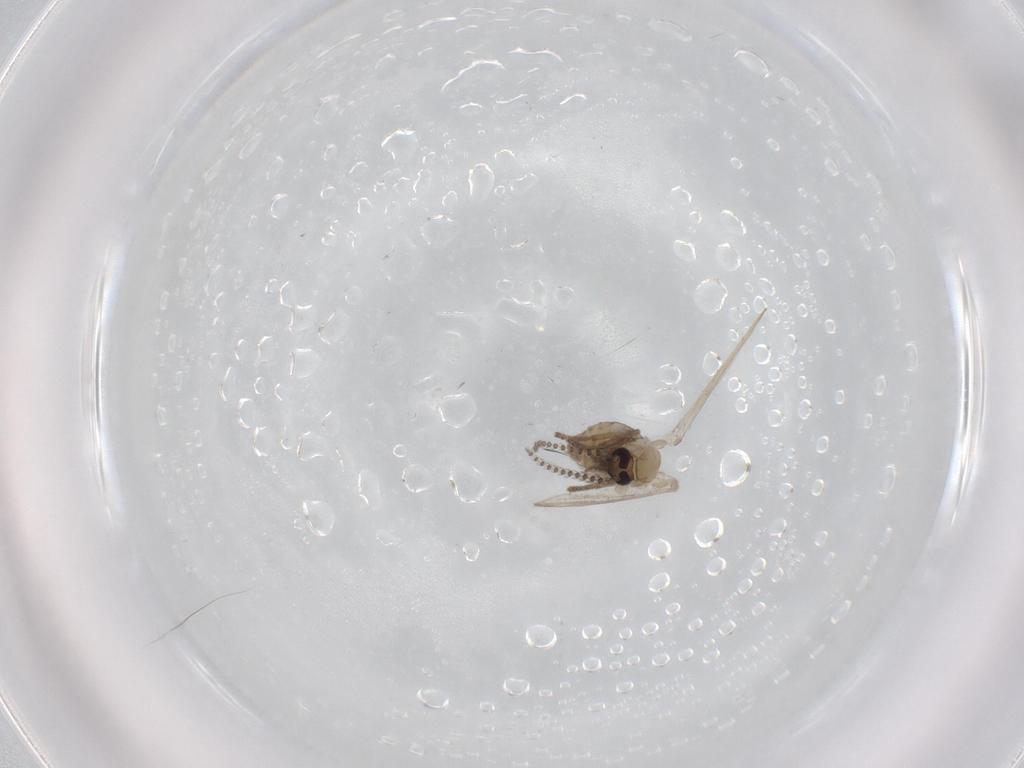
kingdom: Animalia
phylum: Arthropoda
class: Insecta
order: Diptera
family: Psychodidae
